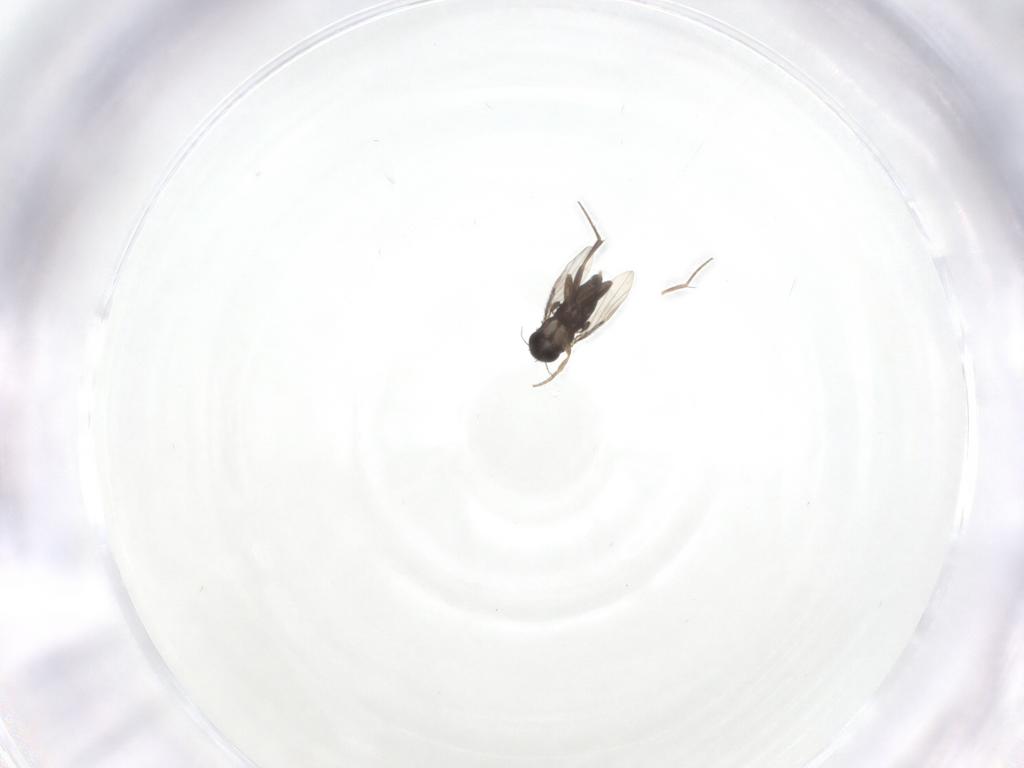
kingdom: Animalia
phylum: Arthropoda
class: Insecta
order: Diptera
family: Phoridae
